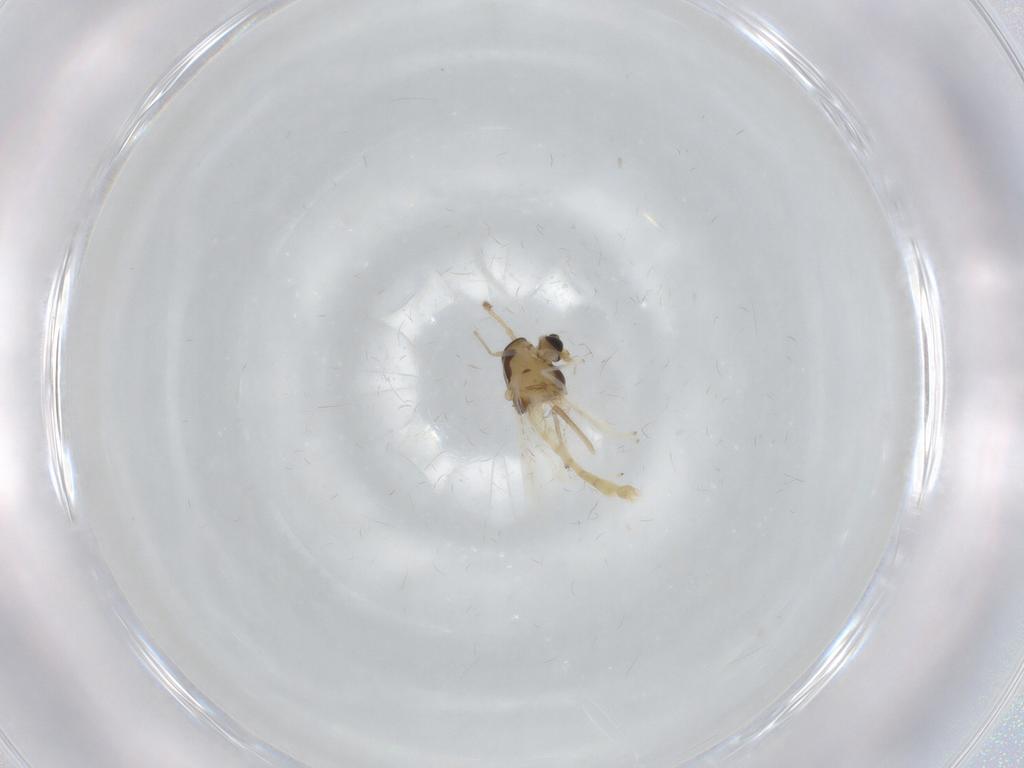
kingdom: Animalia
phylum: Arthropoda
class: Insecta
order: Diptera
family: Chironomidae
